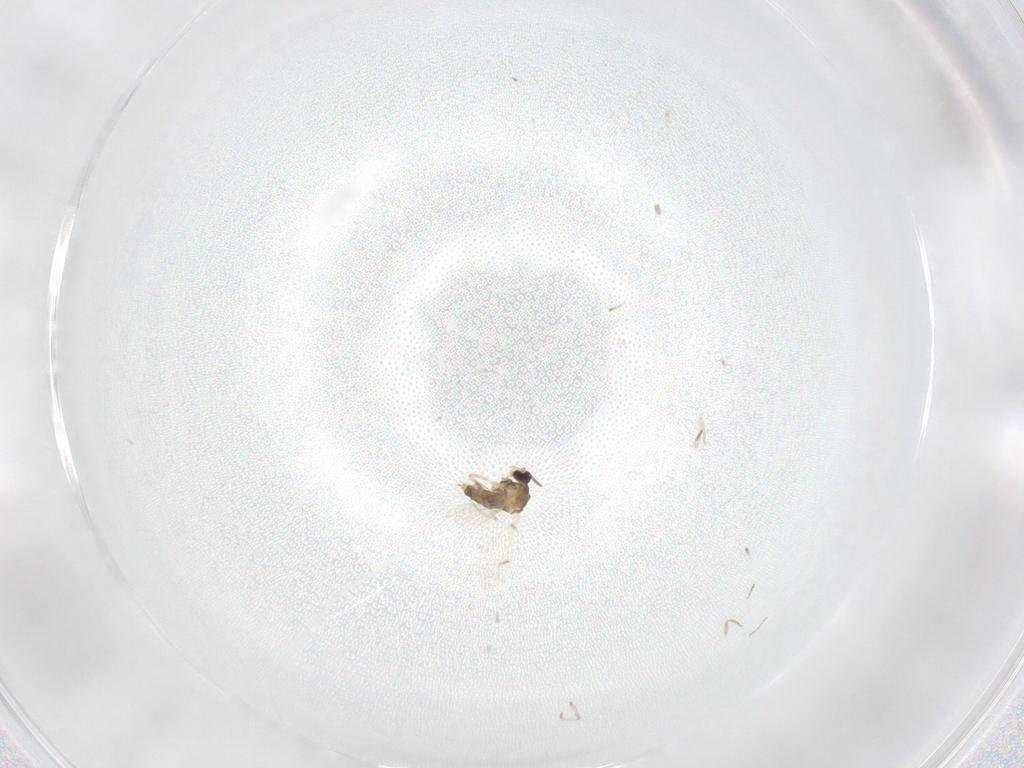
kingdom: Animalia
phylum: Arthropoda
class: Insecta
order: Diptera
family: Cecidomyiidae
